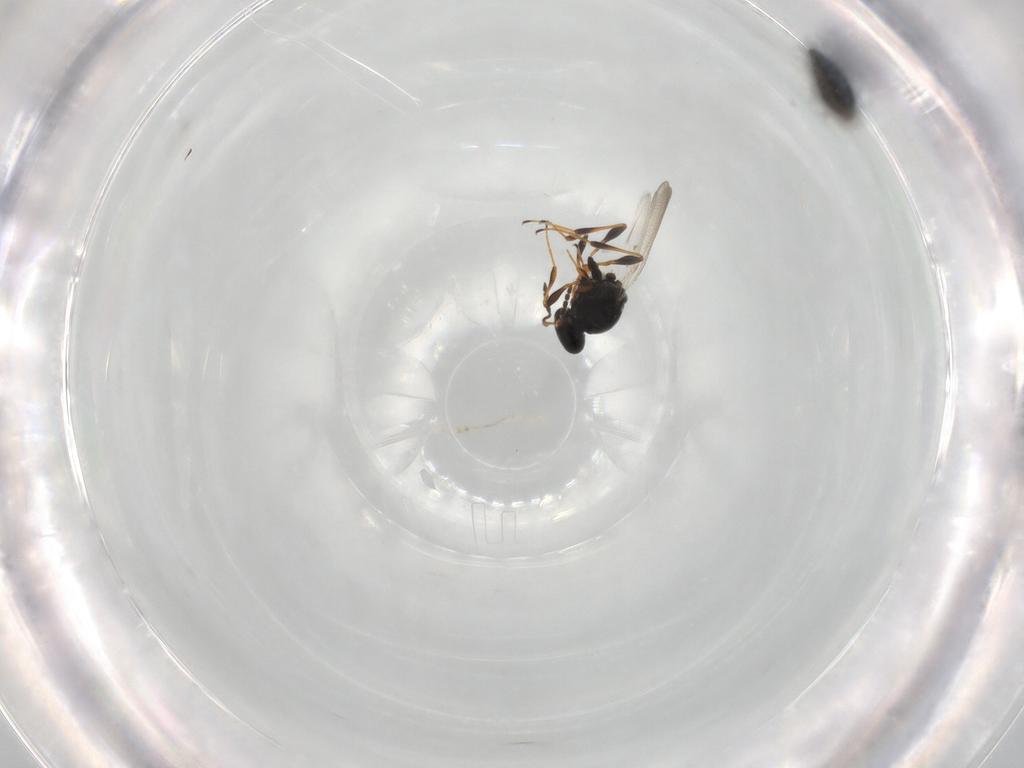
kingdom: Animalia
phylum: Arthropoda
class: Insecta
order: Hymenoptera
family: Platygastridae
